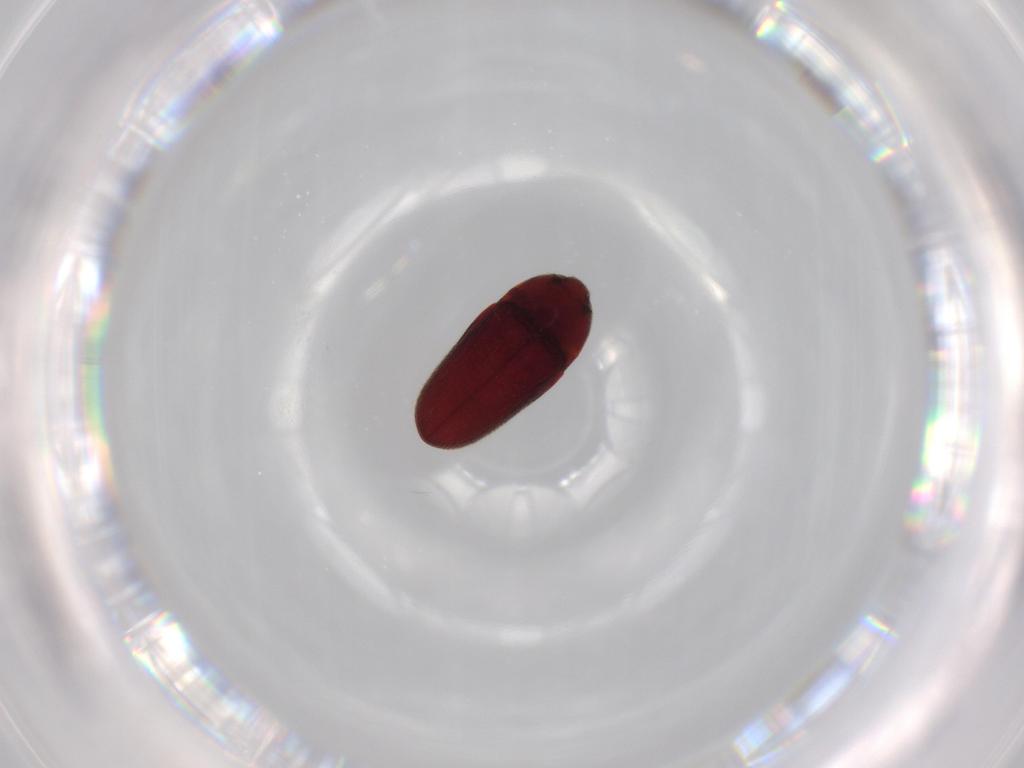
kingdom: Animalia
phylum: Arthropoda
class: Insecta
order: Coleoptera
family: Throscidae
